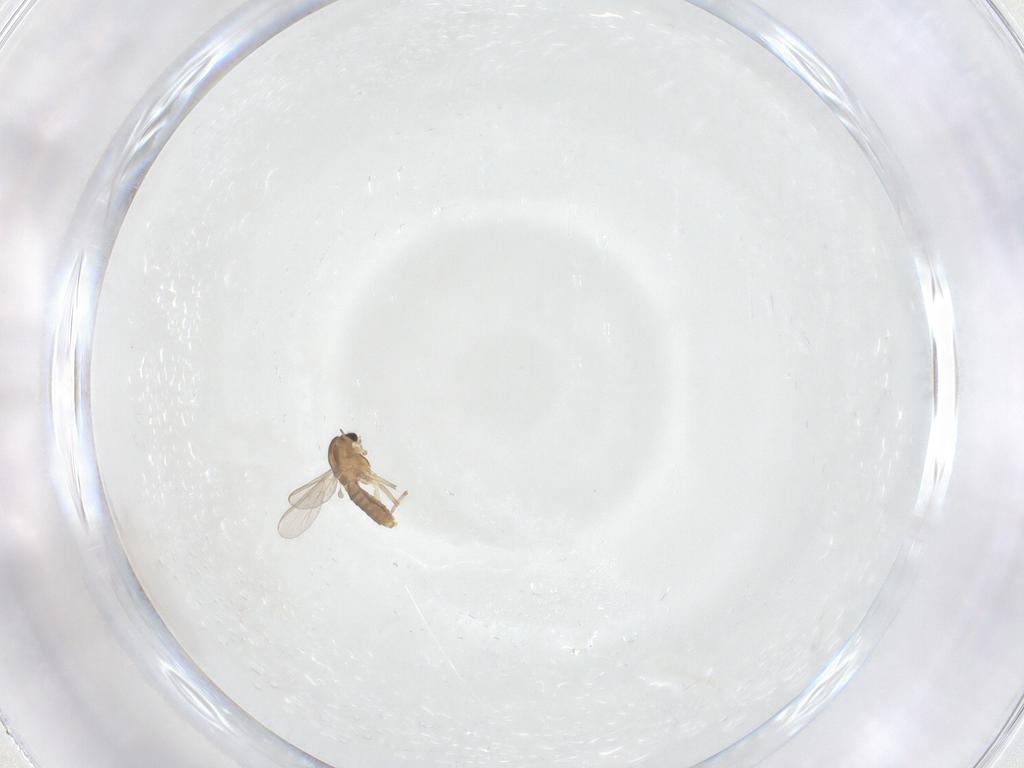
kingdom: Animalia
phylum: Arthropoda
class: Insecta
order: Diptera
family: Chironomidae
